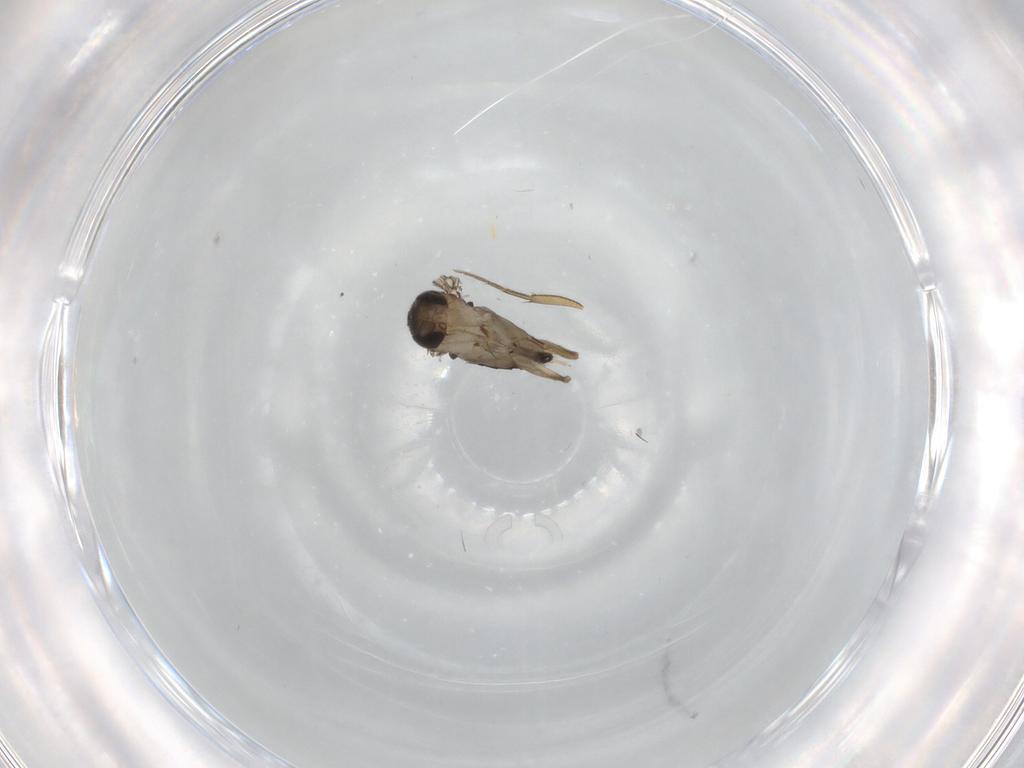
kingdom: Animalia
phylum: Arthropoda
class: Insecta
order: Diptera
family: Phoridae
